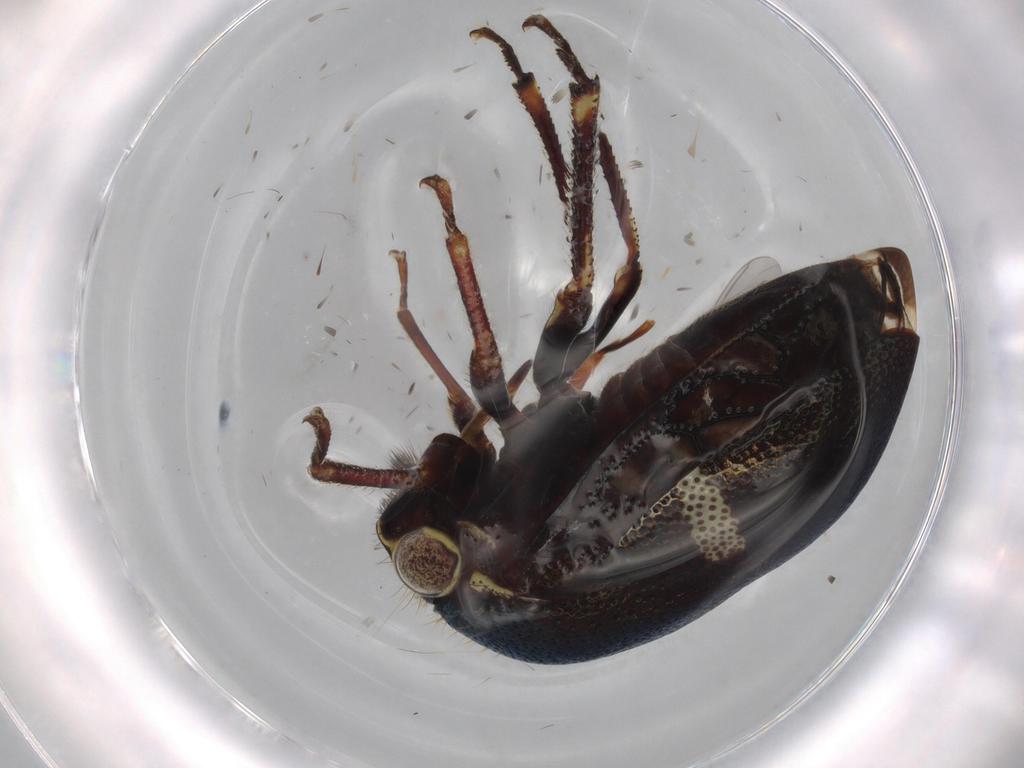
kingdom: Animalia
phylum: Arthropoda
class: Insecta
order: Hemiptera
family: Membracidae
